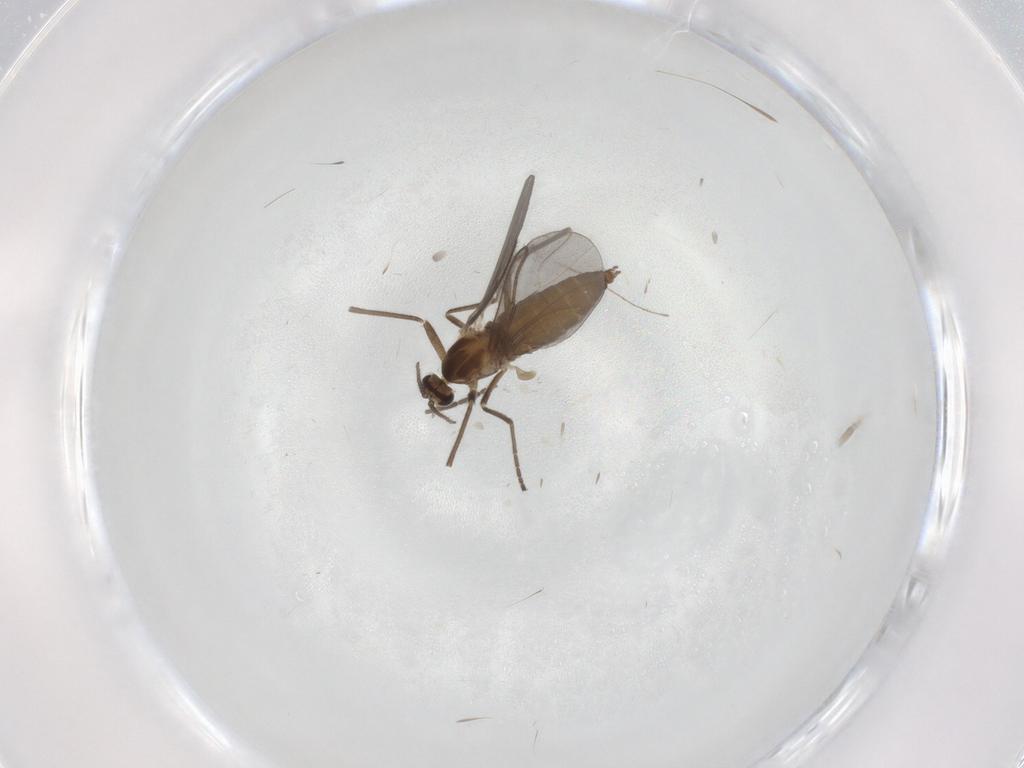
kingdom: Animalia
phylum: Arthropoda
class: Insecta
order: Diptera
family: Cecidomyiidae
